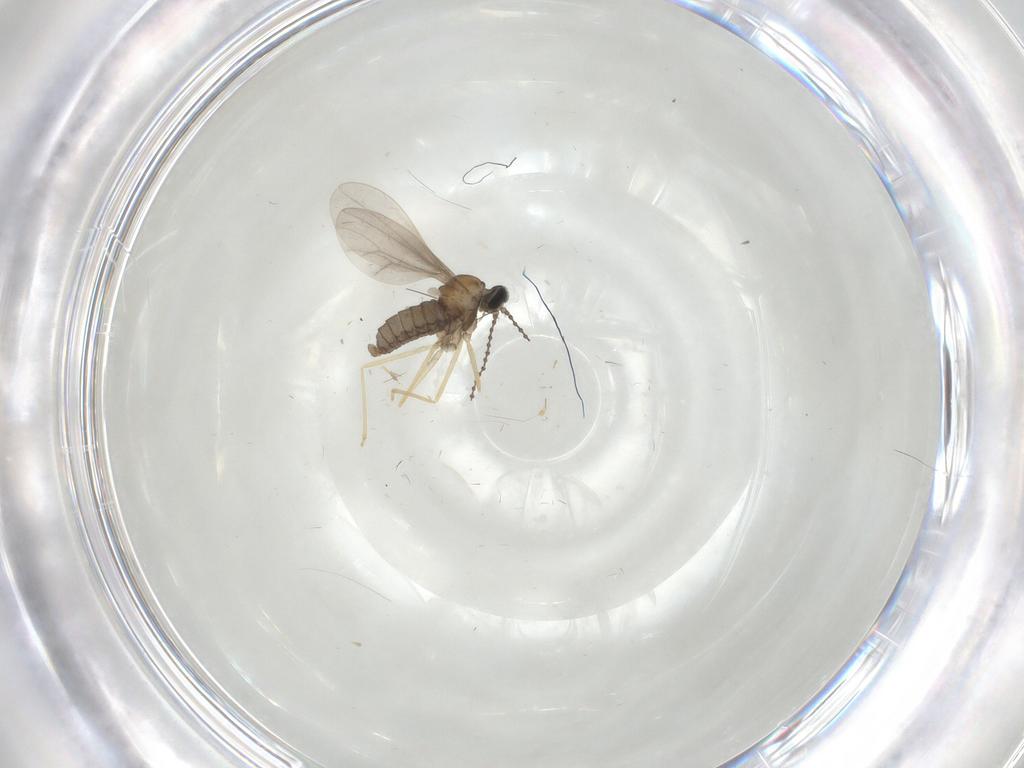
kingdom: Animalia
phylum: Arthropoda
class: Insecta
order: Diptera
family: Cecidomyiidae
